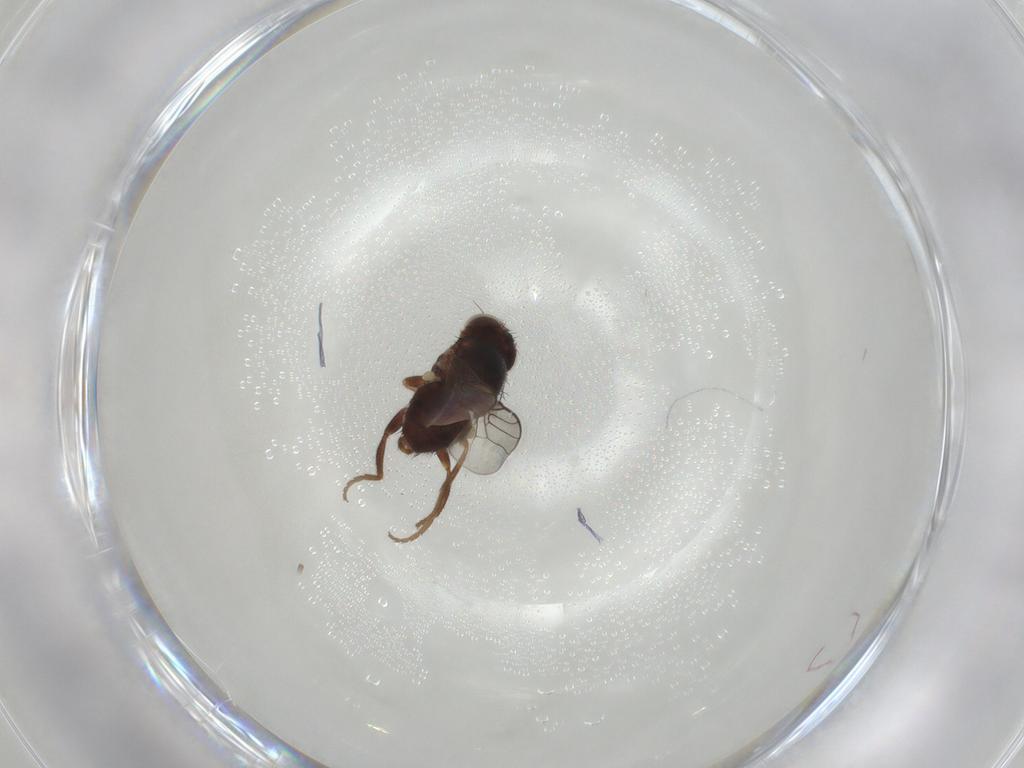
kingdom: Animalia
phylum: Arthropoda
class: Insecta
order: Diptera
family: Chloropidae
